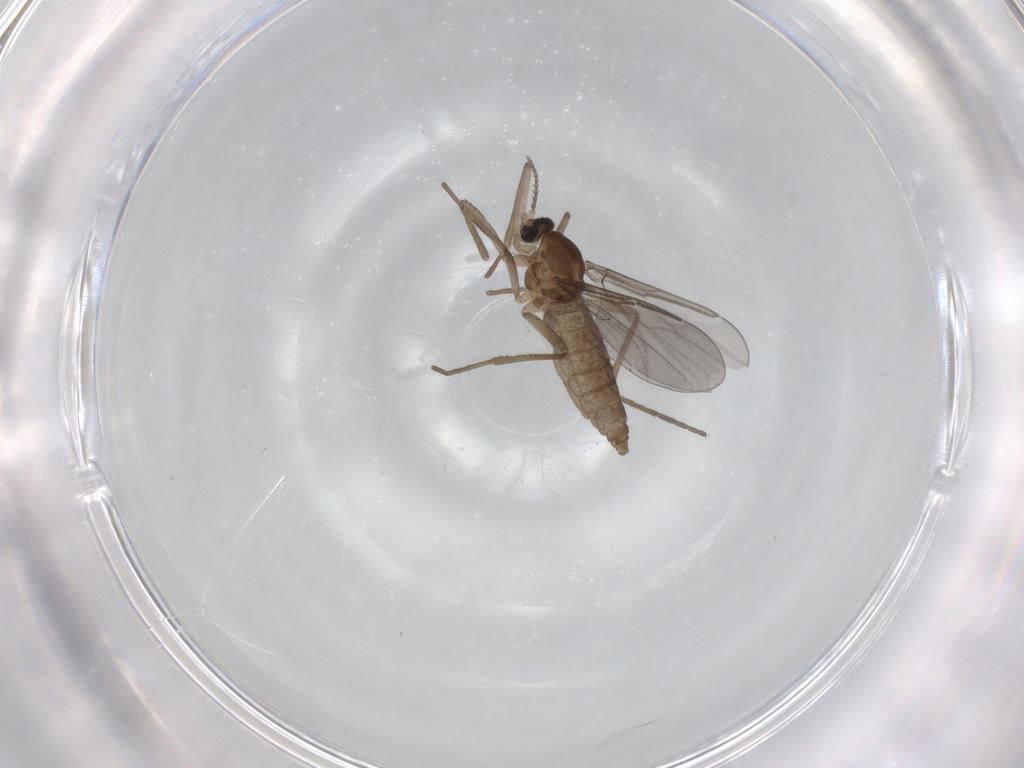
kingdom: Animalia
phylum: Arthropoda
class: Insecta
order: Diptera
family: Cecidomyiidae
